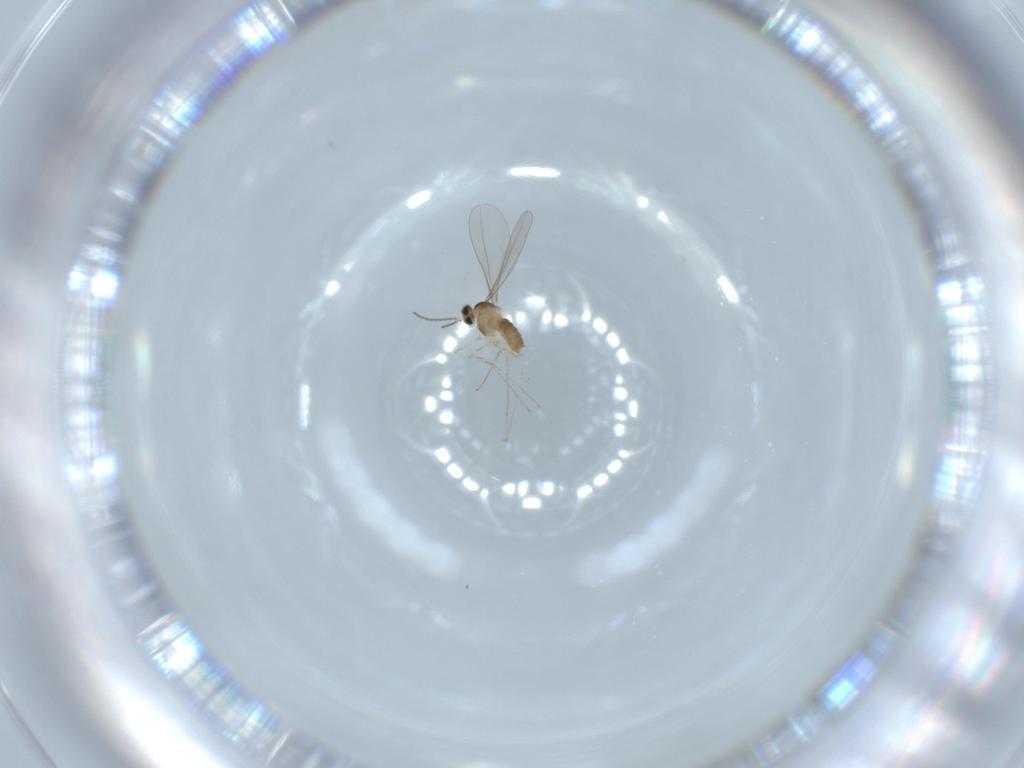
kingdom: Animalia
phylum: Arthropoda
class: Insecta
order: Diptera
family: Cecidomyiidae
